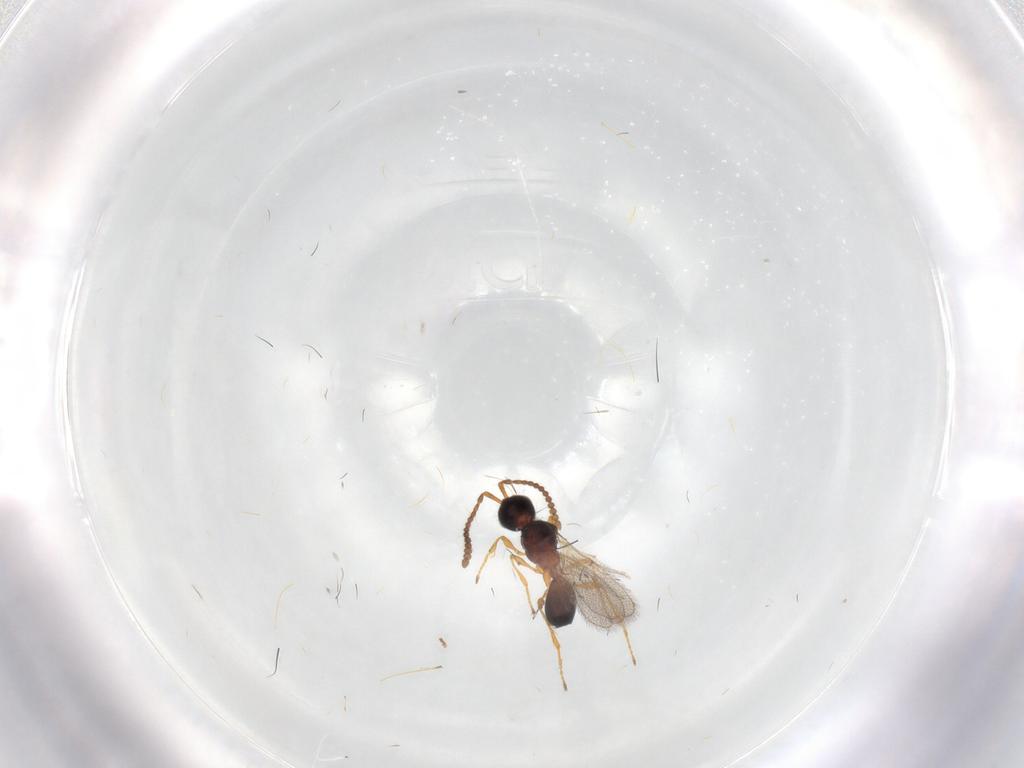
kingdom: Animalia
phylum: Arthropoda
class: Insecta
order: Hymenoptera
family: Diapriidae
